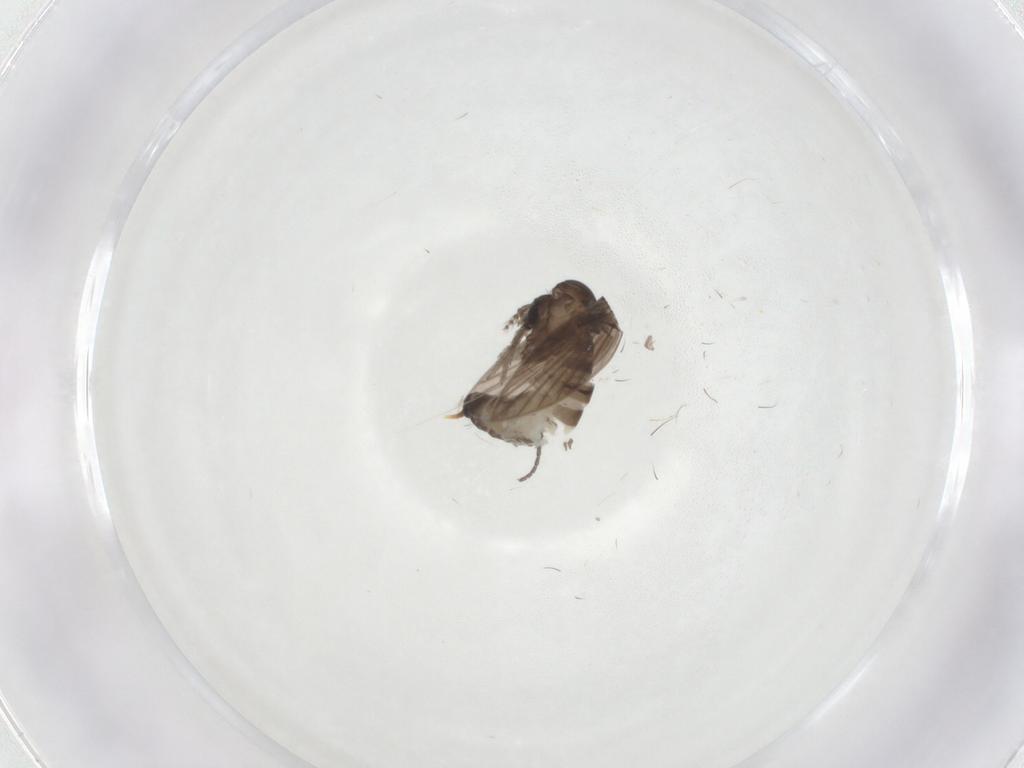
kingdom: Animalia
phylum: Arthropoda
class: Insecta
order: Diptera
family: Psychodidae
